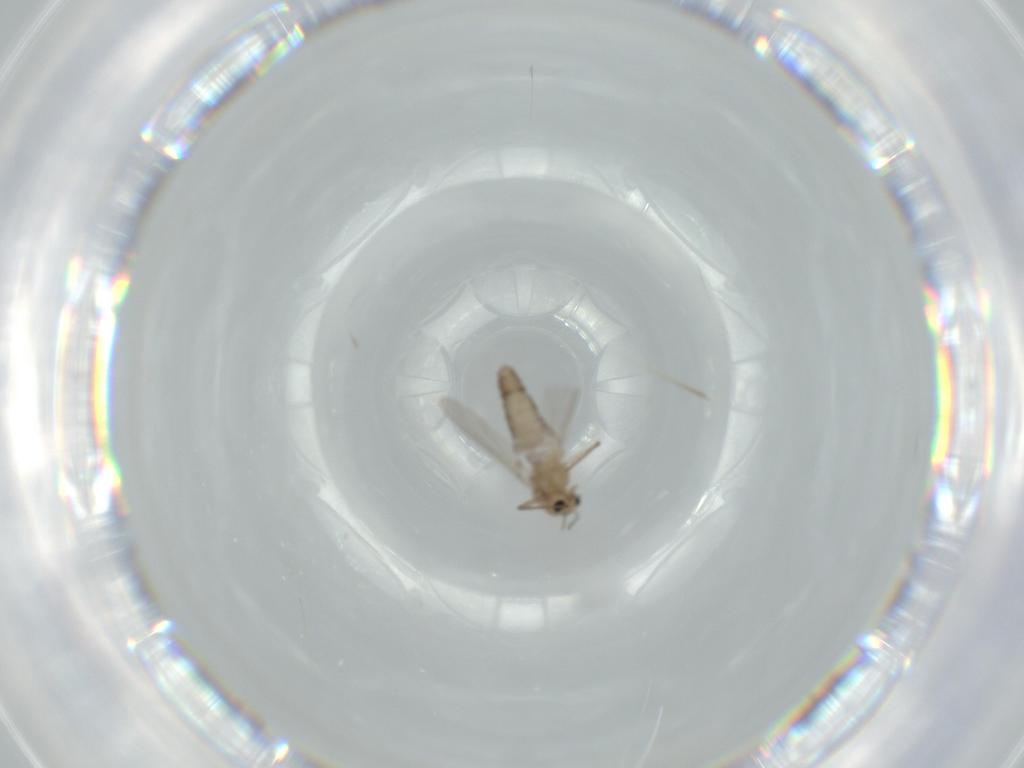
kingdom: Animalia
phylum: Arthropoda
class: Insecta
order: Diptera
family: Chironomidae
